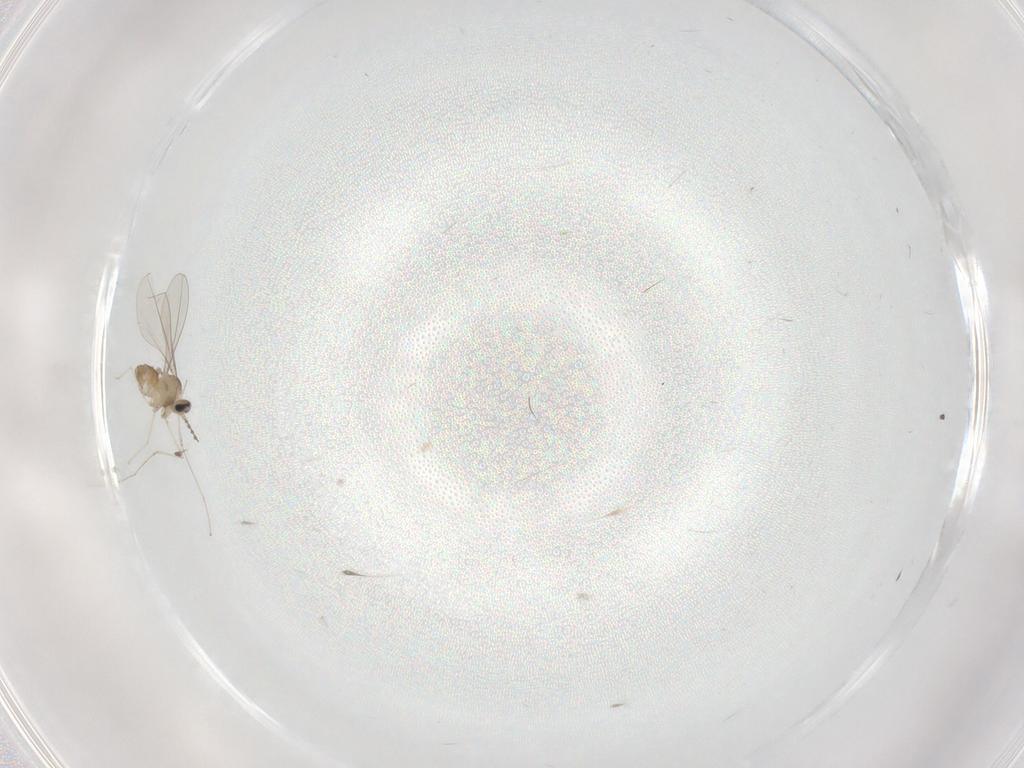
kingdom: Animalia
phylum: Arthropoda
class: Insecta
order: Diptera
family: Cecidomyiidae
